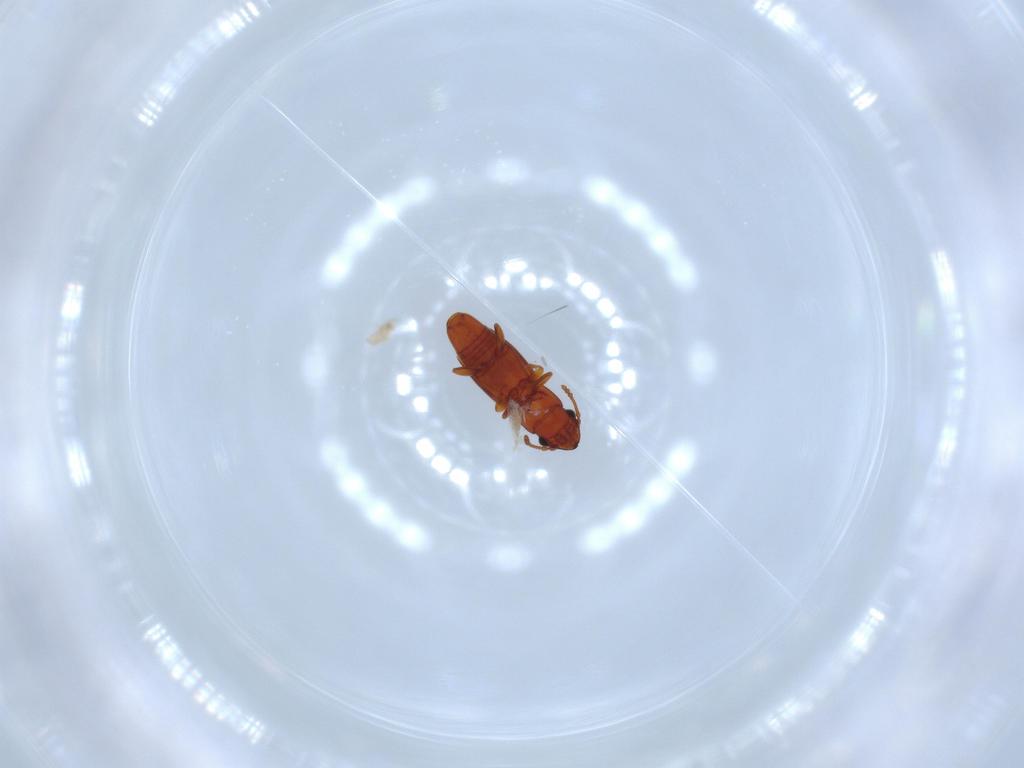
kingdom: Animalia
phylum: Arthropoda
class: Insecta
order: Coleoptera
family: Smicripidae
